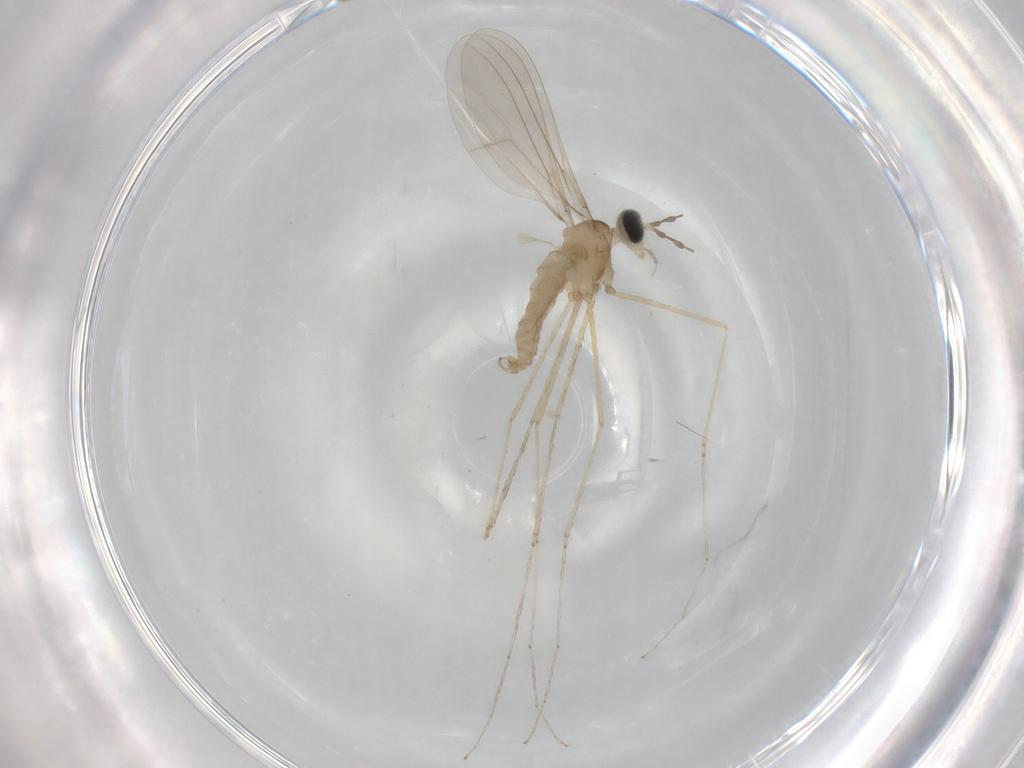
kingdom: Animalia
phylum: Arthropoda
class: Insecta
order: Diptera
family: Cecidomyiidae
